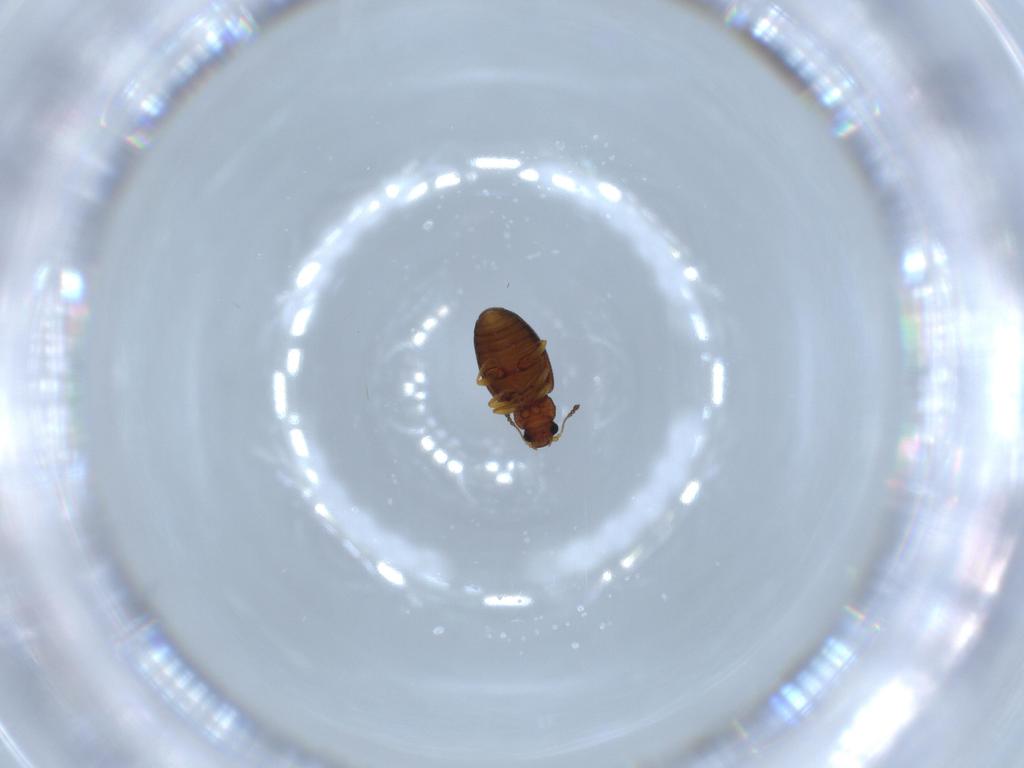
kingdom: Animalia
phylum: Arthropoda
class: Insecta
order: Coleoptera
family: Latridiidae
